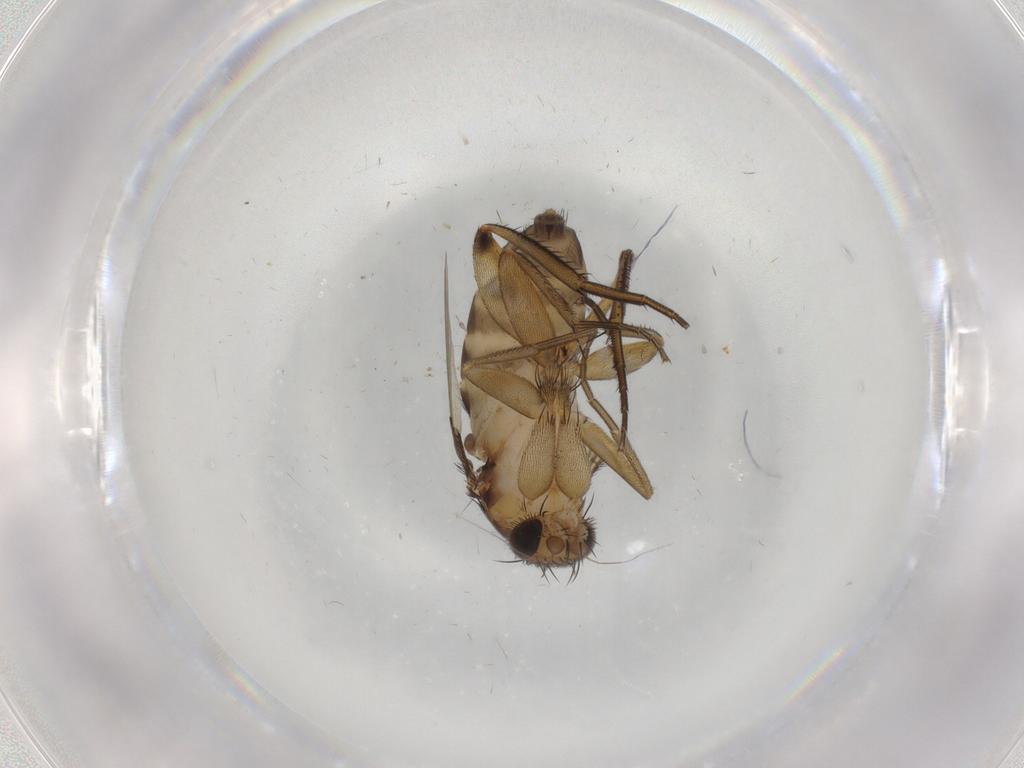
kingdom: Animalia
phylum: Arthropoda
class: Insecta
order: Diptera
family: Phoridae
